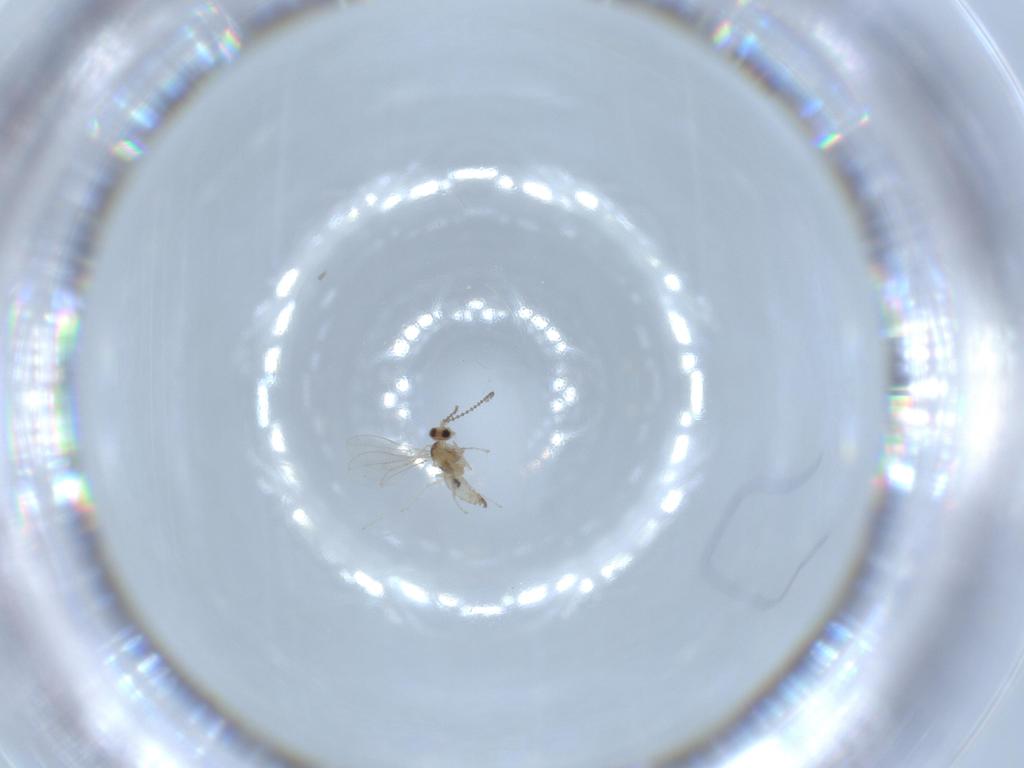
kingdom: Animalia
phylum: Arthropoda
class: Insecta
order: Diptera
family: Cecidomyiidae
